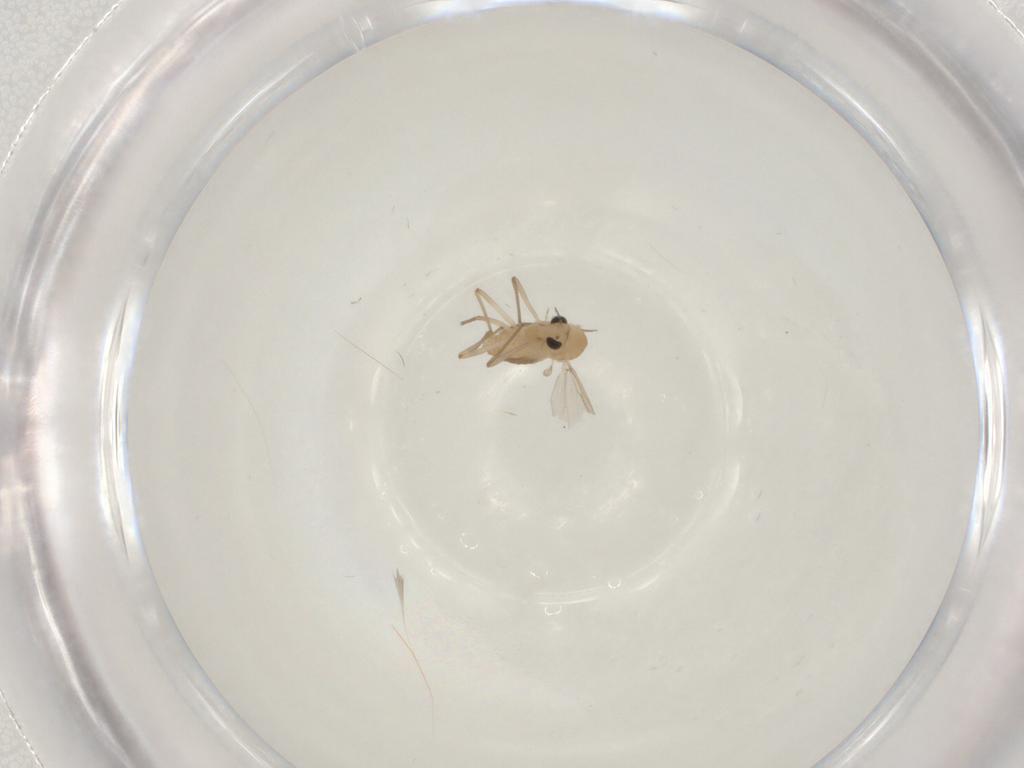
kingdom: Animalia
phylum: Arthropoda
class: Insecta
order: Diptera
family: Chironomidae
